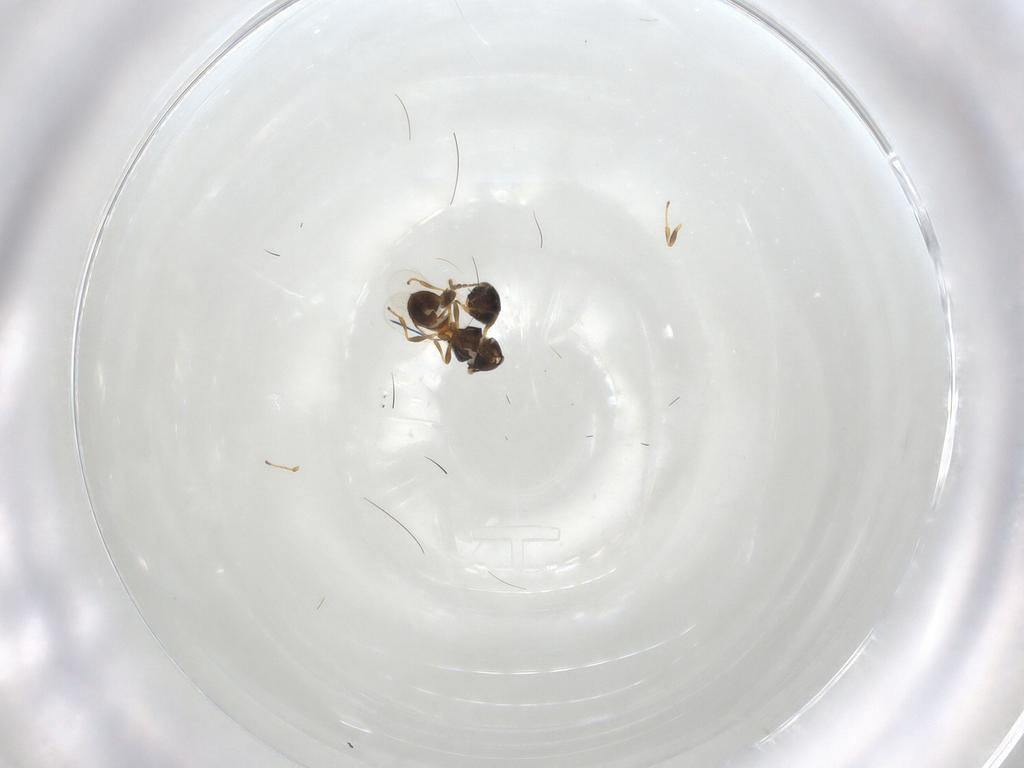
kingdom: Animalia
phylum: Arthropoda
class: Insecta
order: Hymenoptera
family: Platygastridae
